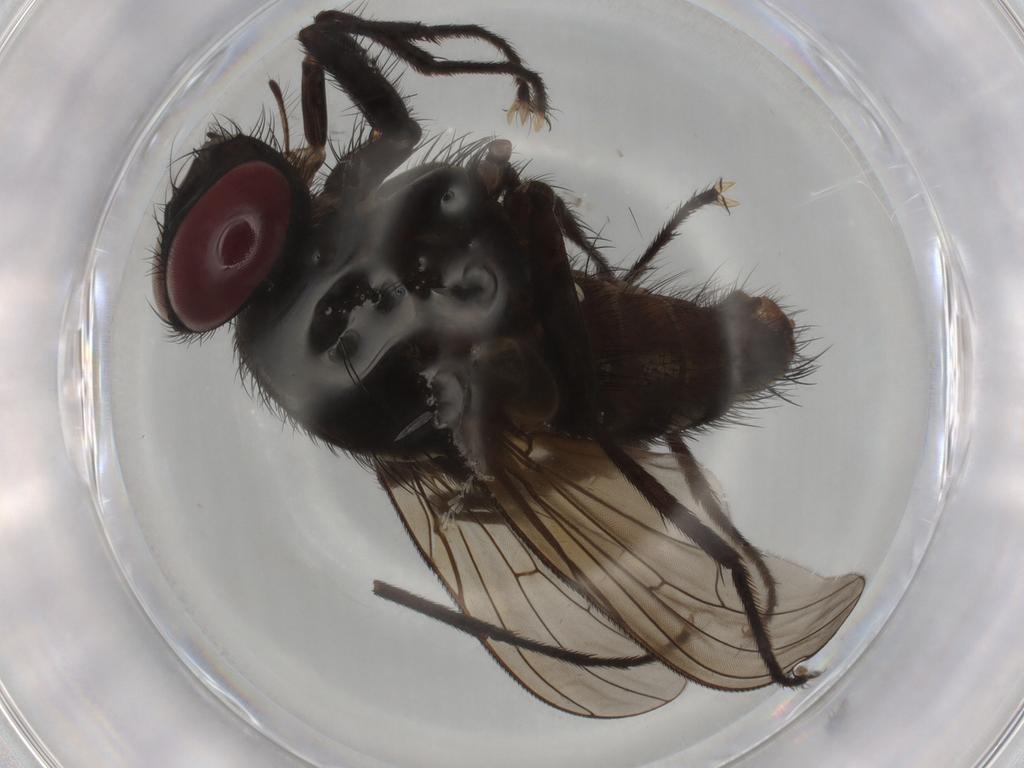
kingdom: Animalia
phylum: Arthropoda
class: Insecta
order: Diptera
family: Muscidae
